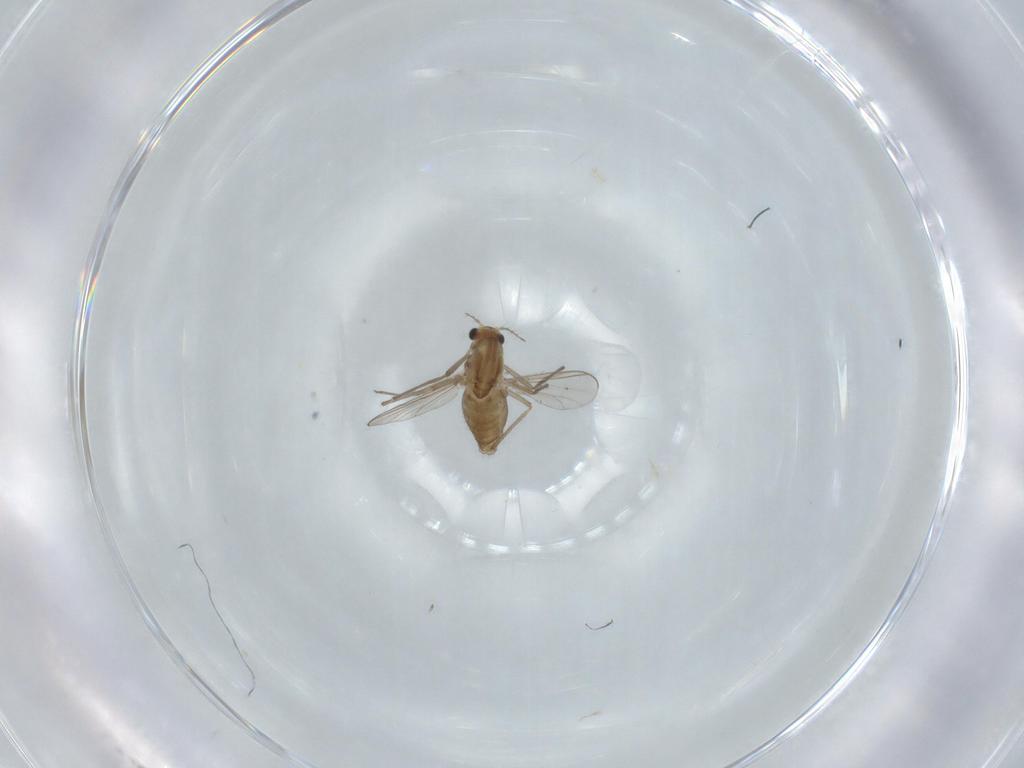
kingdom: Animalia
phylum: Arthropoda
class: Insecta
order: Diptera
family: Chironomidae
